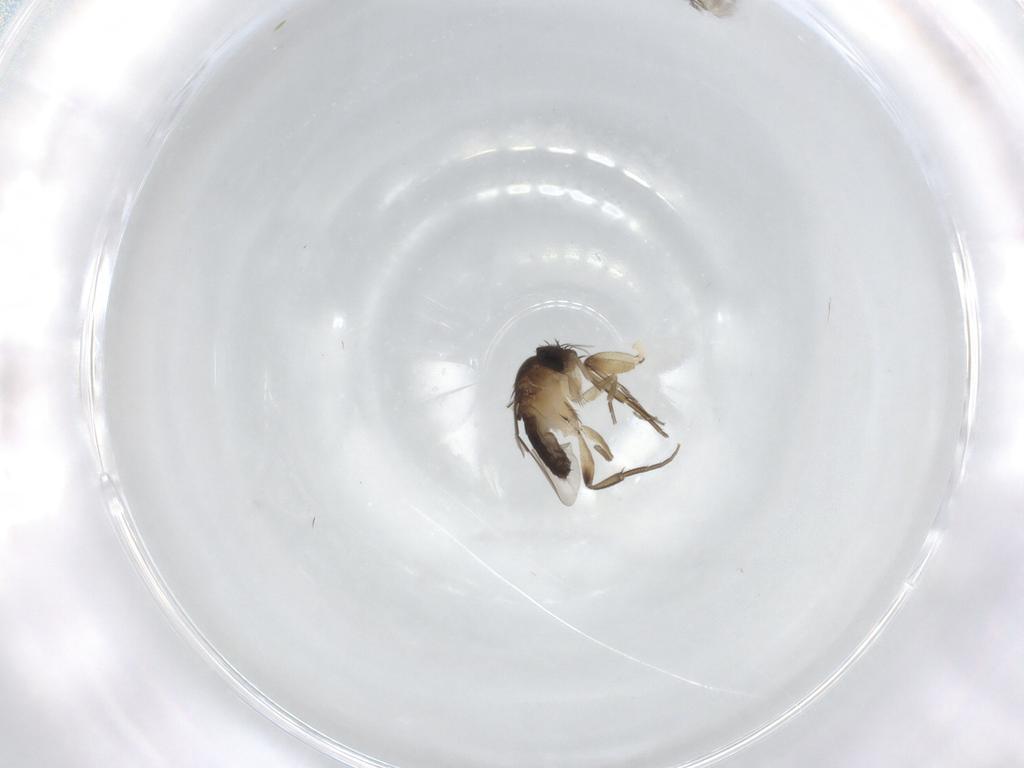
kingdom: Animalia
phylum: Arthropoda
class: Insecta
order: Diptera
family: Phoridae
